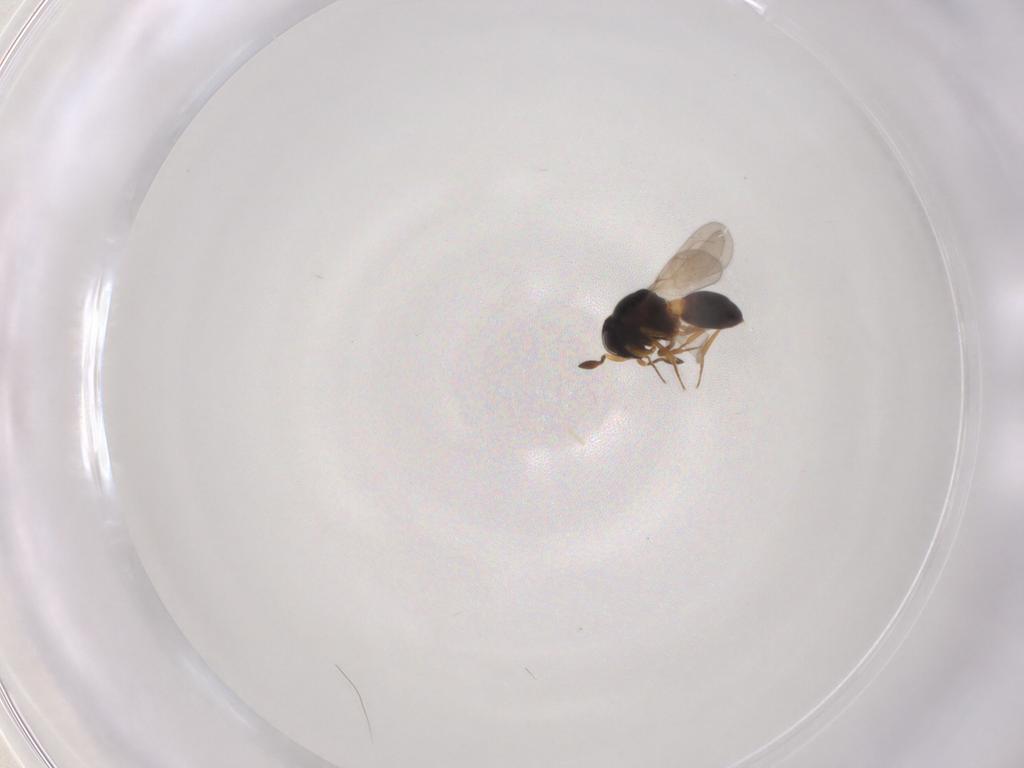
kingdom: Animalia
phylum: Arthropoda
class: Insecta
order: Hymenoptera
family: Scelionidae
